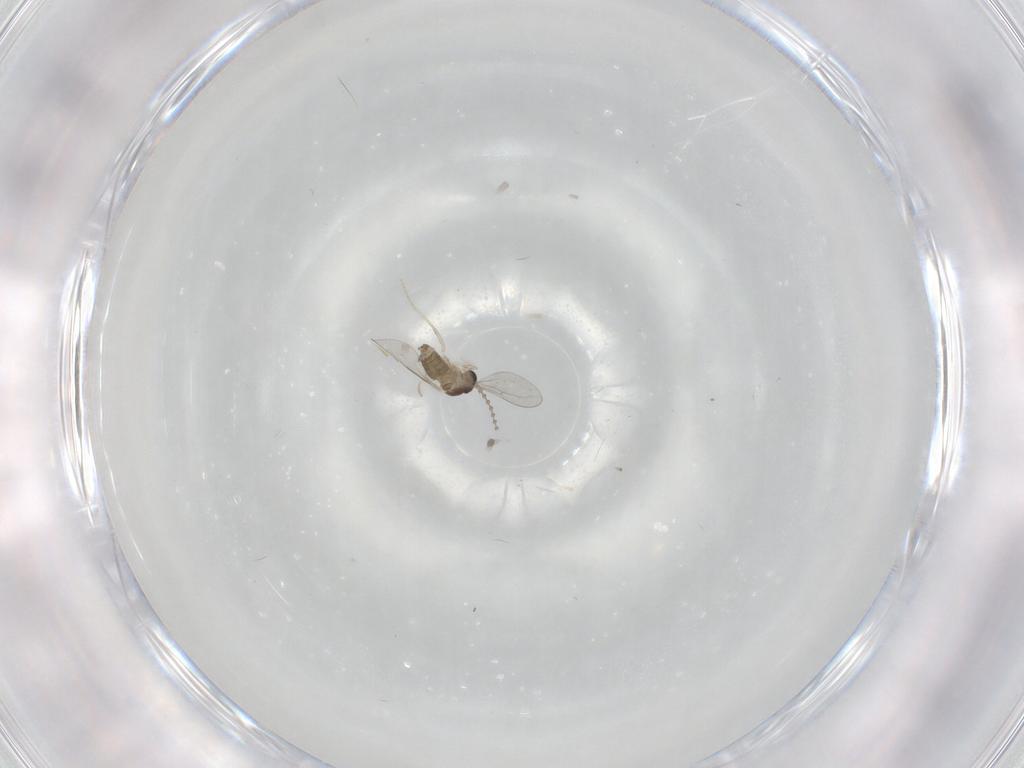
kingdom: Animalia
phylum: Arthropoda
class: Insecta
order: Diptera
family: Cecidomyiidae
